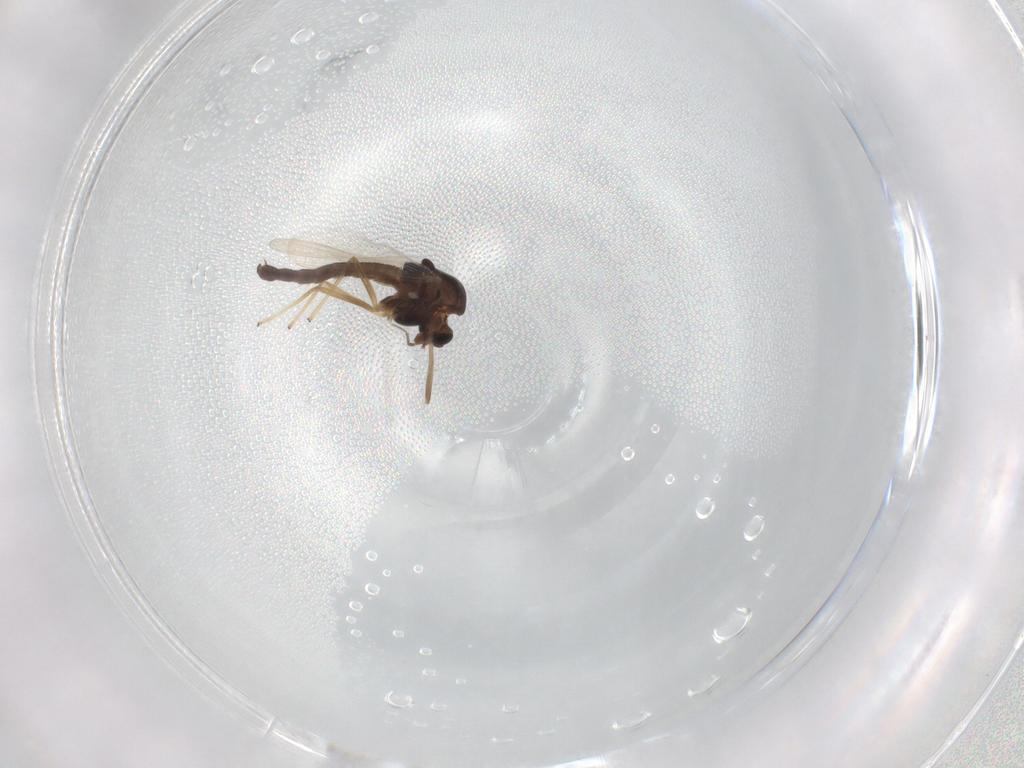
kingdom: Animalia
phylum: Arthropoda
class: Insecta
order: Diptera
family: Chironomidae
